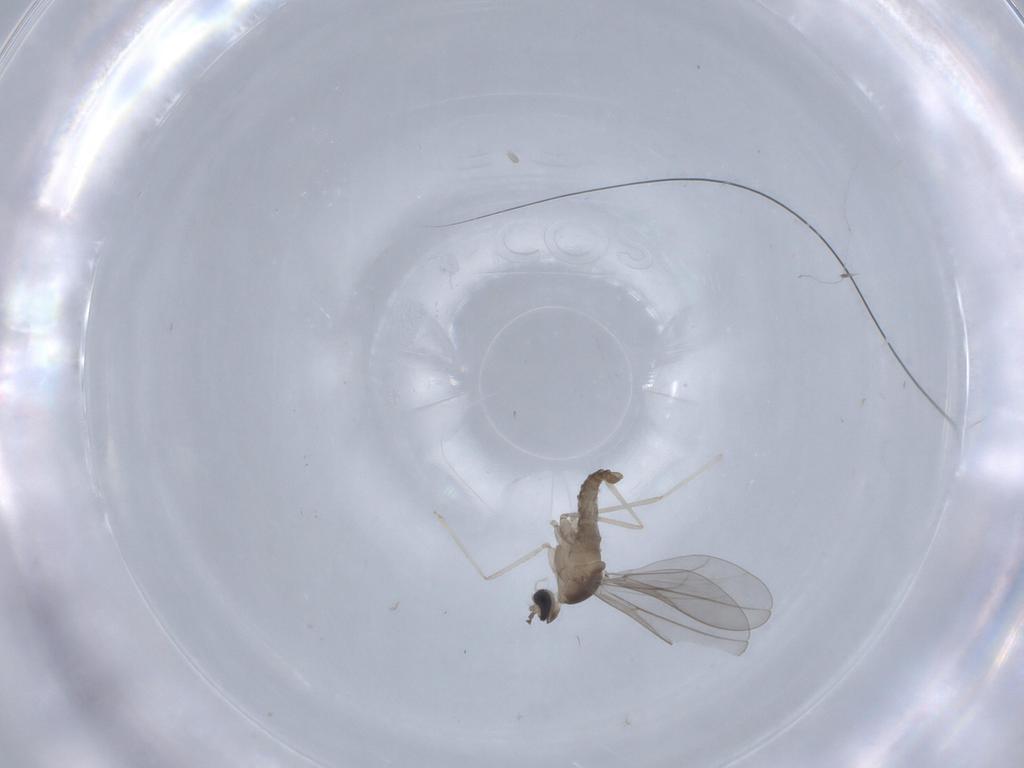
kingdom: Animalia
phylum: Arthropoda
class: Insecta
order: Diptera
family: Cecidomyiidae
